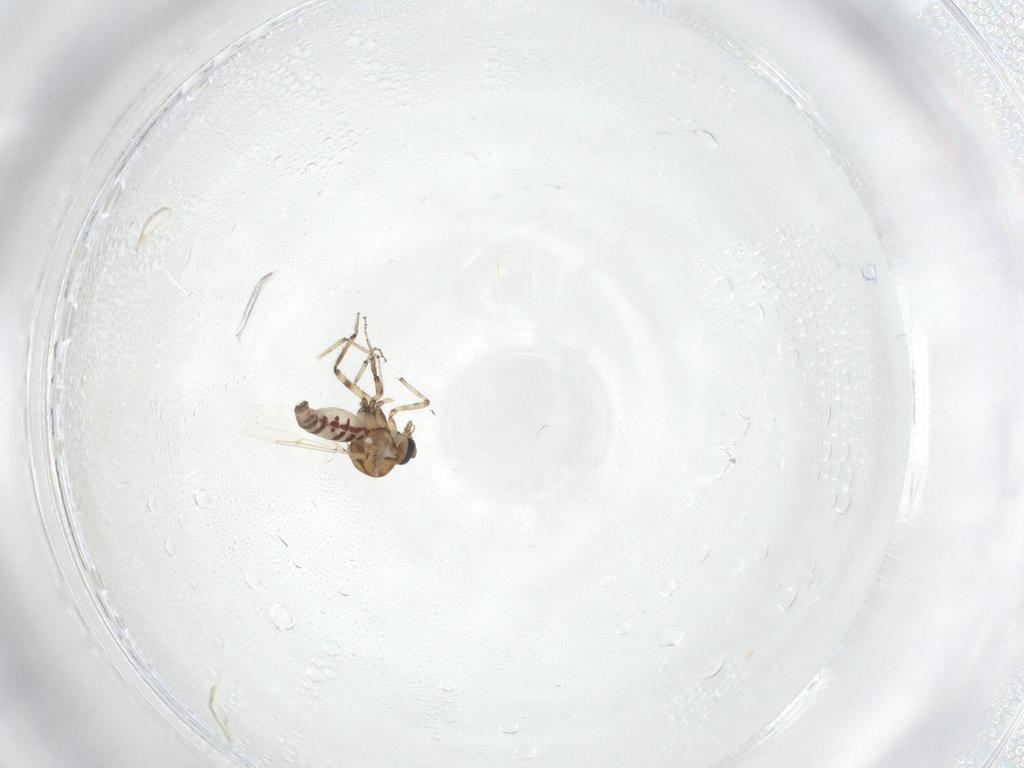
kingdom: Animalia
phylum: Arthropoda
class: Insecta
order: Diptera
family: Ceratopogonidae
